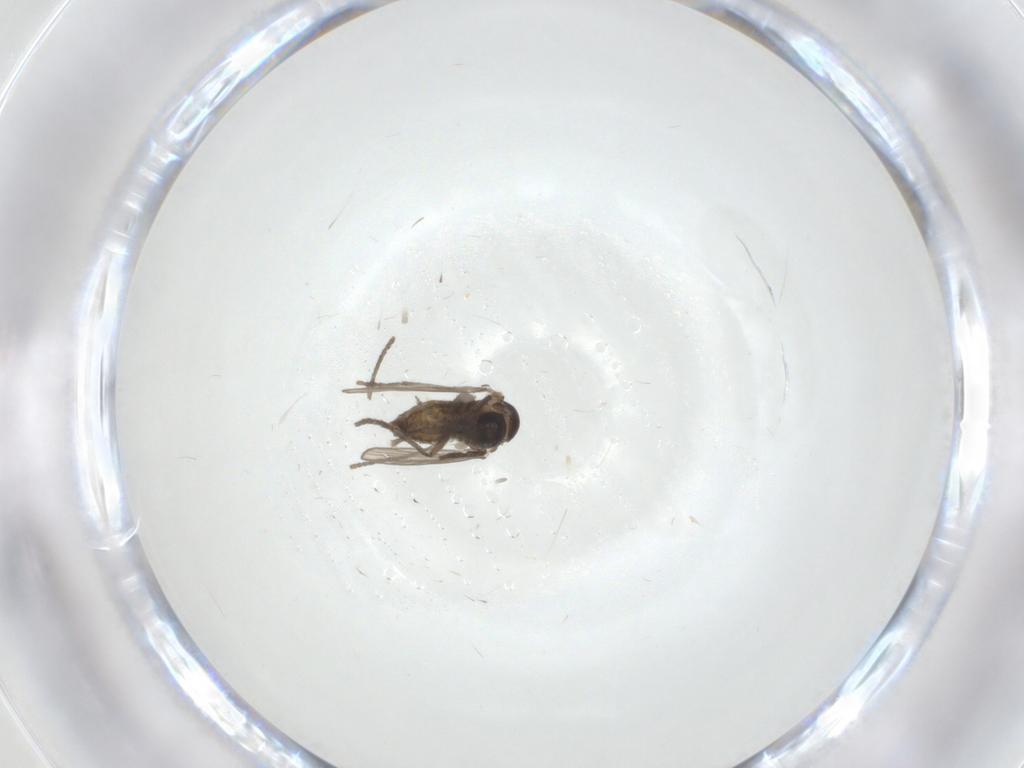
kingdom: Animalia
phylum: Arthropoda
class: Insecta
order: Diptera
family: Psychodidae
